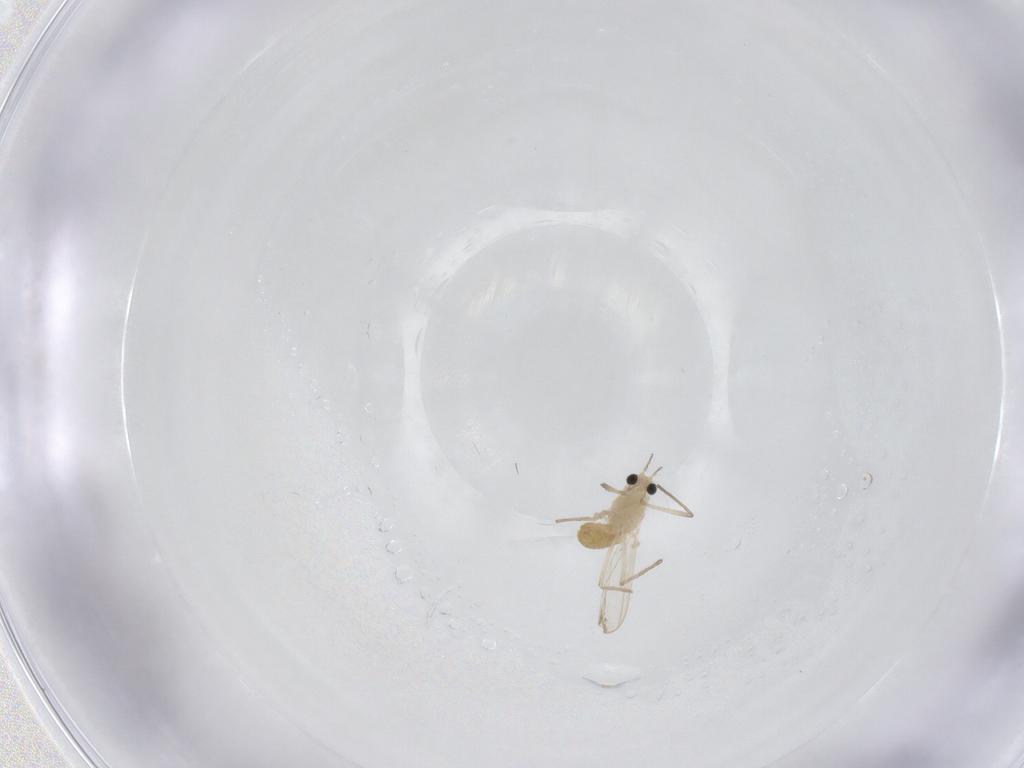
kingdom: Animalia
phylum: Arthropoda
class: Insecta
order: Diptera
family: Chironomidae
